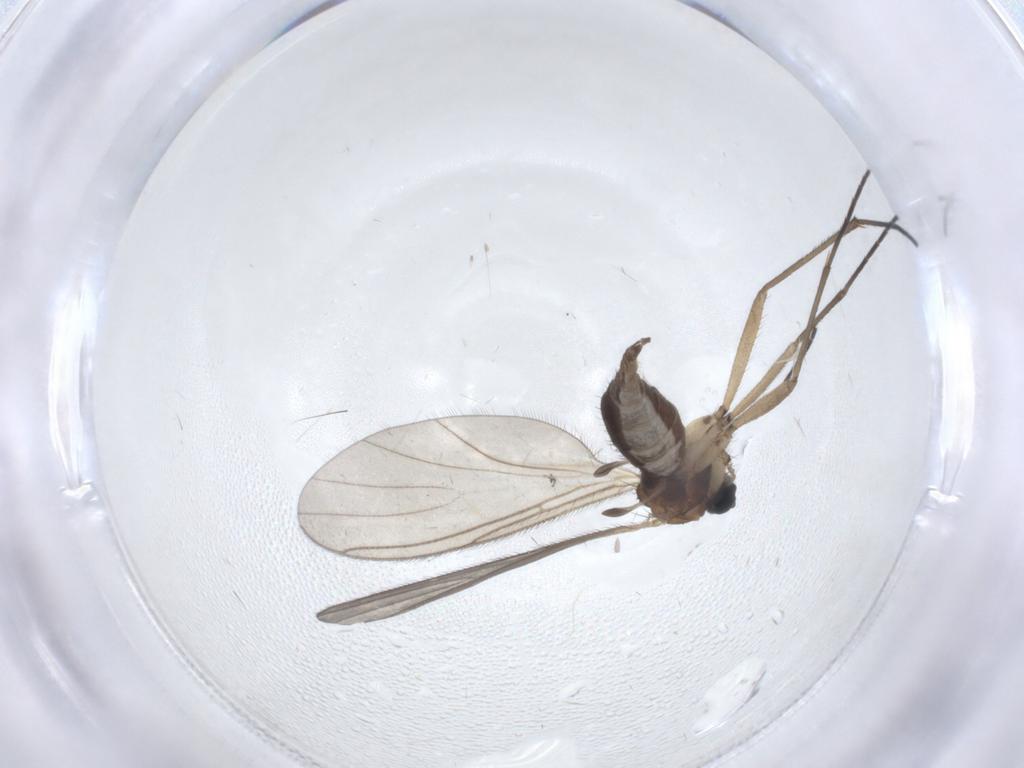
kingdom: Animalia
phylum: Arthropoda
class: Insecta
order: Diptera
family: Sciaridae
